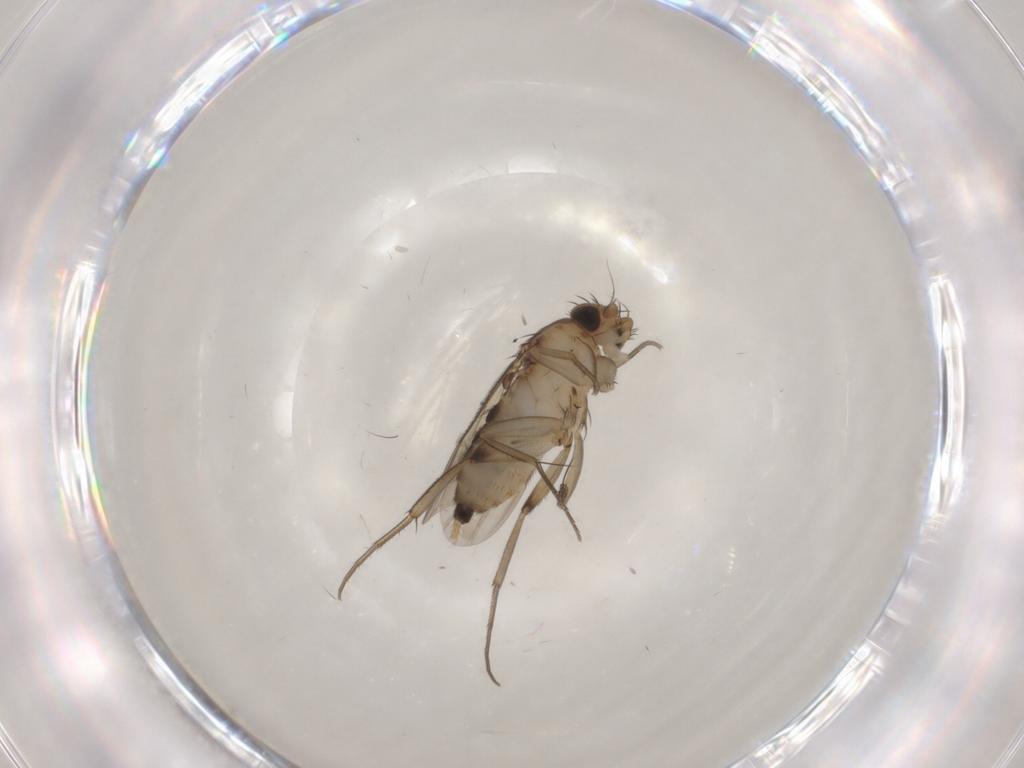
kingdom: Animalia
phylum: Arthropoda
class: Insecta
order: Diptera
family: Phoridae
